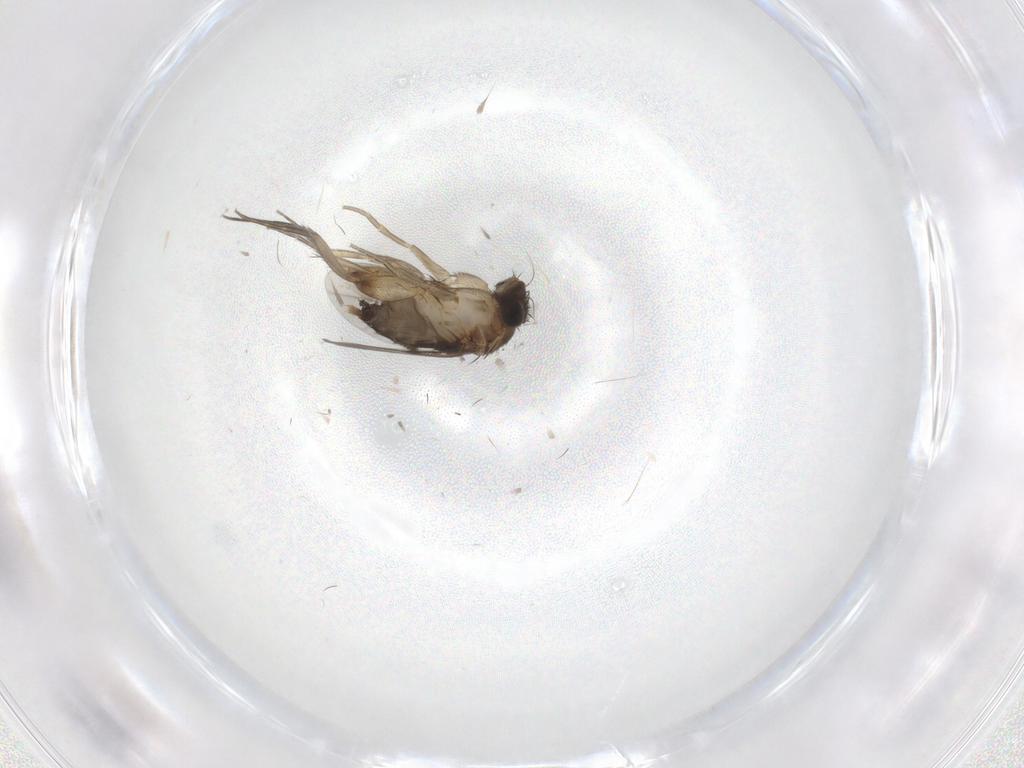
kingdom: Animalia
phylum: Arthropoda
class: Insecta
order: Diptera
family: Phoridae
